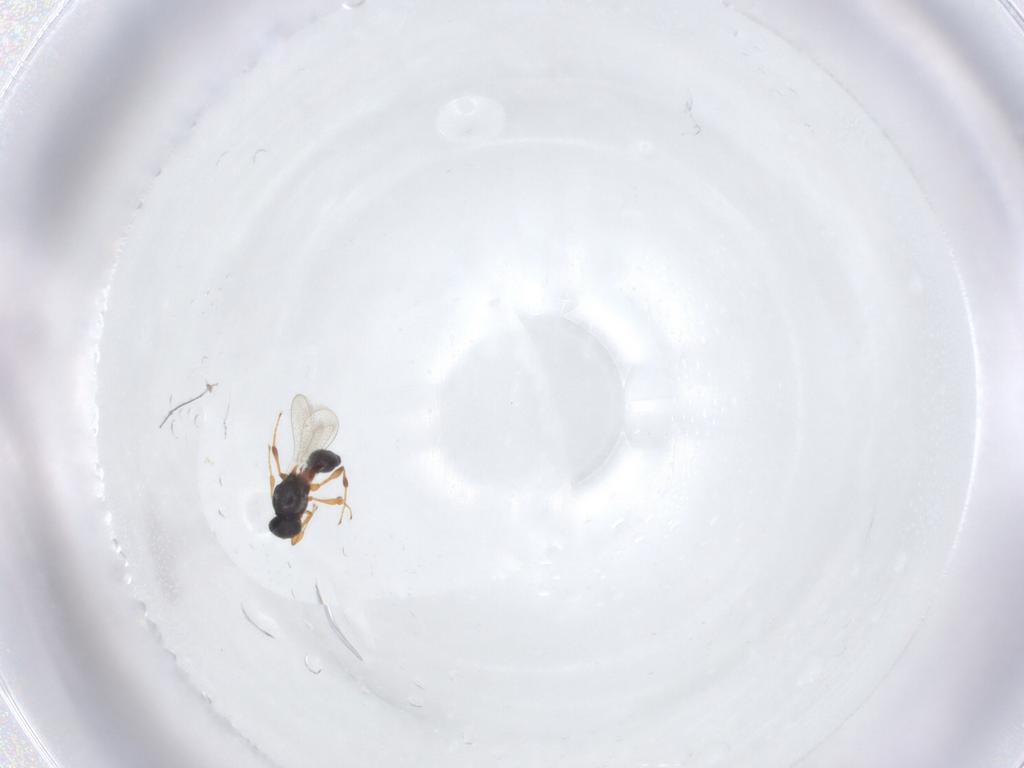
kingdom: Animalia
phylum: Arthropoda
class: Insecta
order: Hymenoptera
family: Platygastridae
